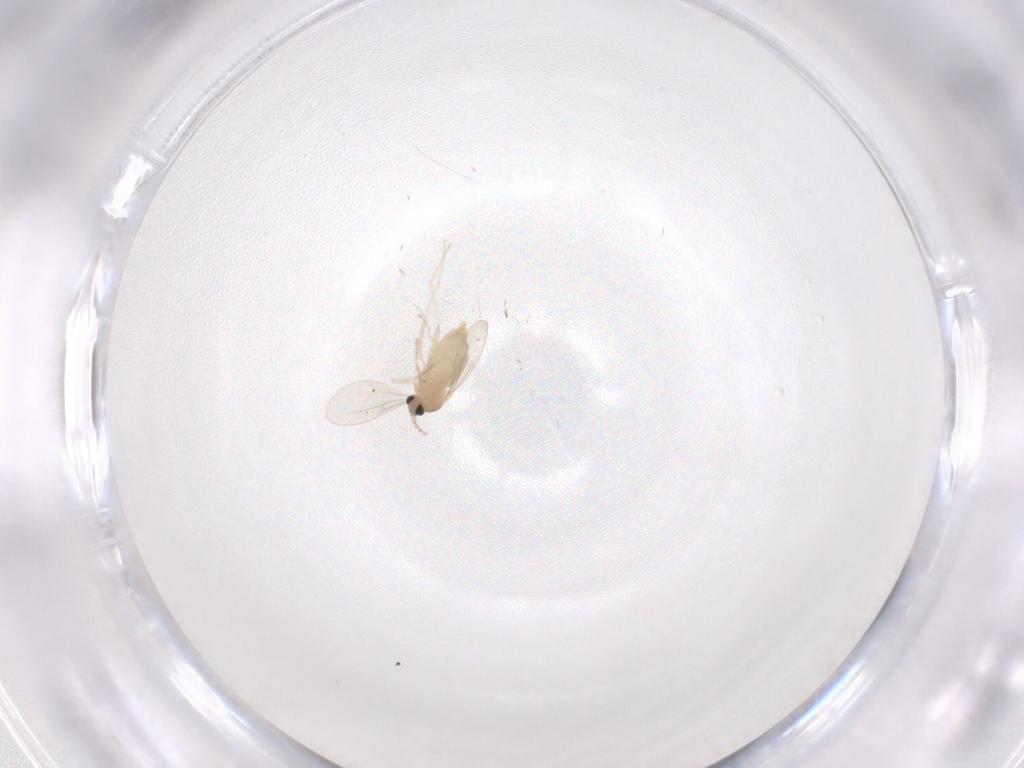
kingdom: Animalia
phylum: Arthropoda
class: Insecta
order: Diptera
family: Cecidomyiidae
